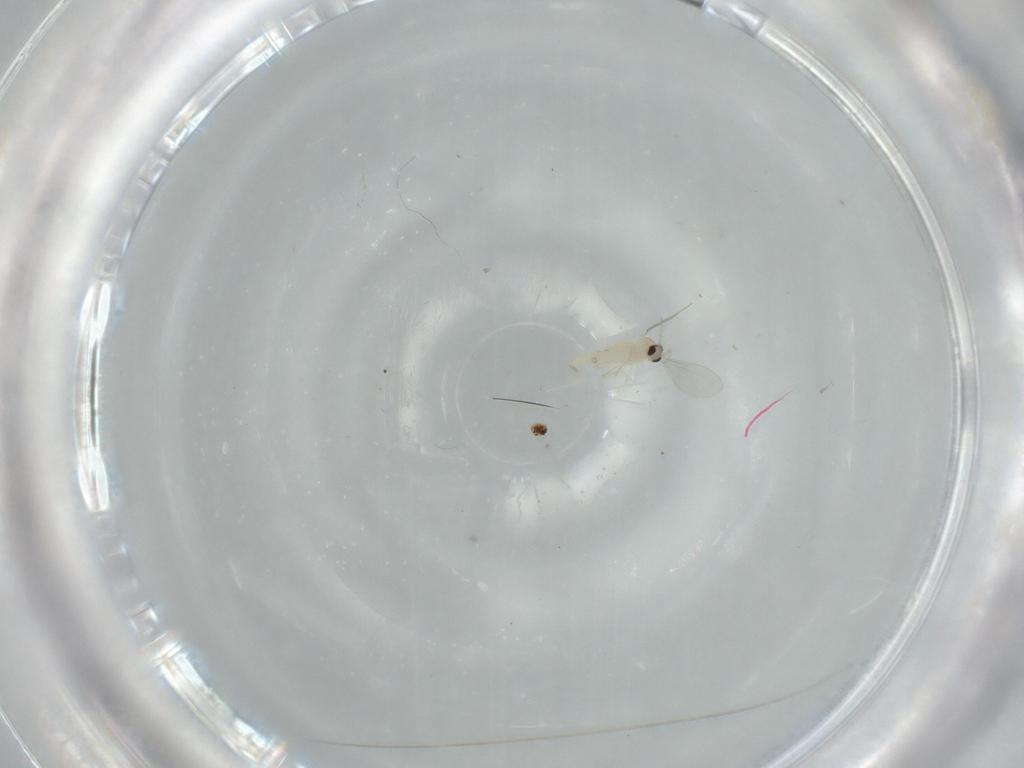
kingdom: Animalia
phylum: Arthropoda
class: Insecta
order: Diptera
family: Cecidomyiidae
